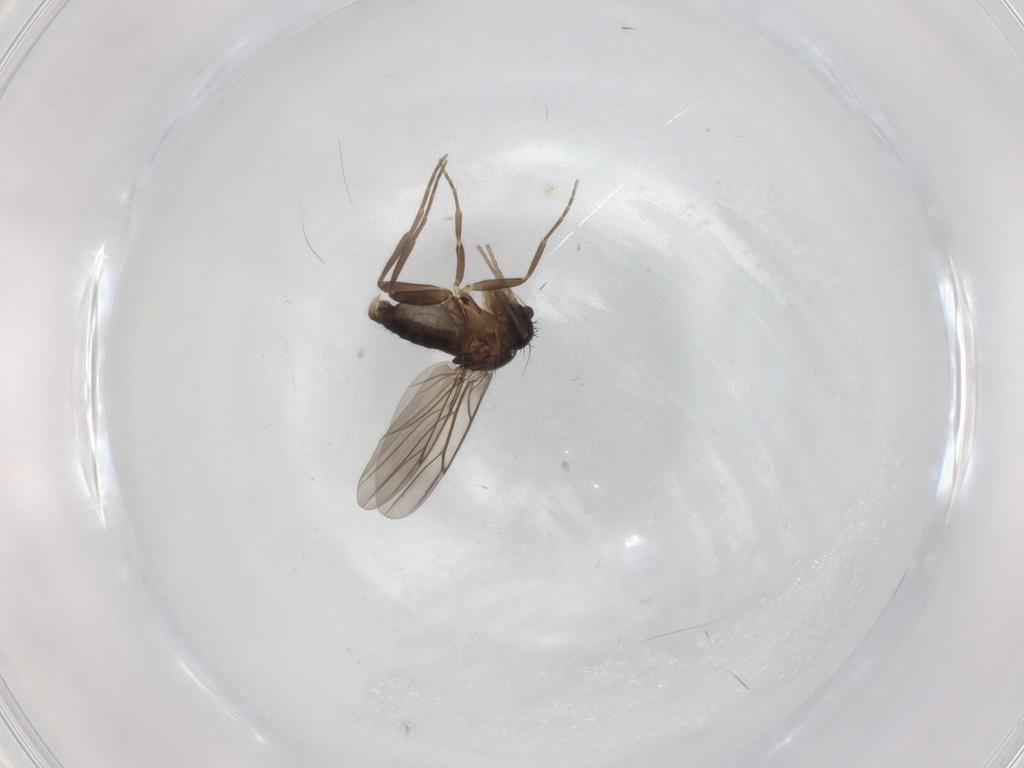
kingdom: Animalia
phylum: Arthropoda
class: Insecta
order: Diptera
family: Phoridae
